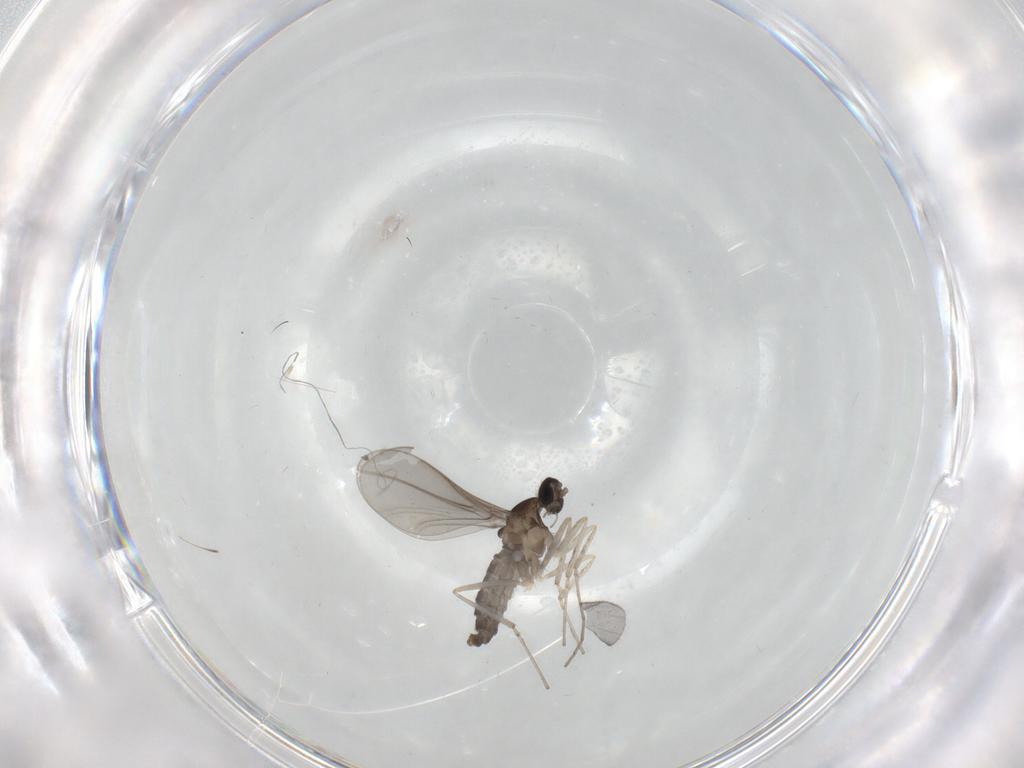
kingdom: Animalia
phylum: Arthropoda
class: Insecta
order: Diptera
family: Cecidomyiidae
